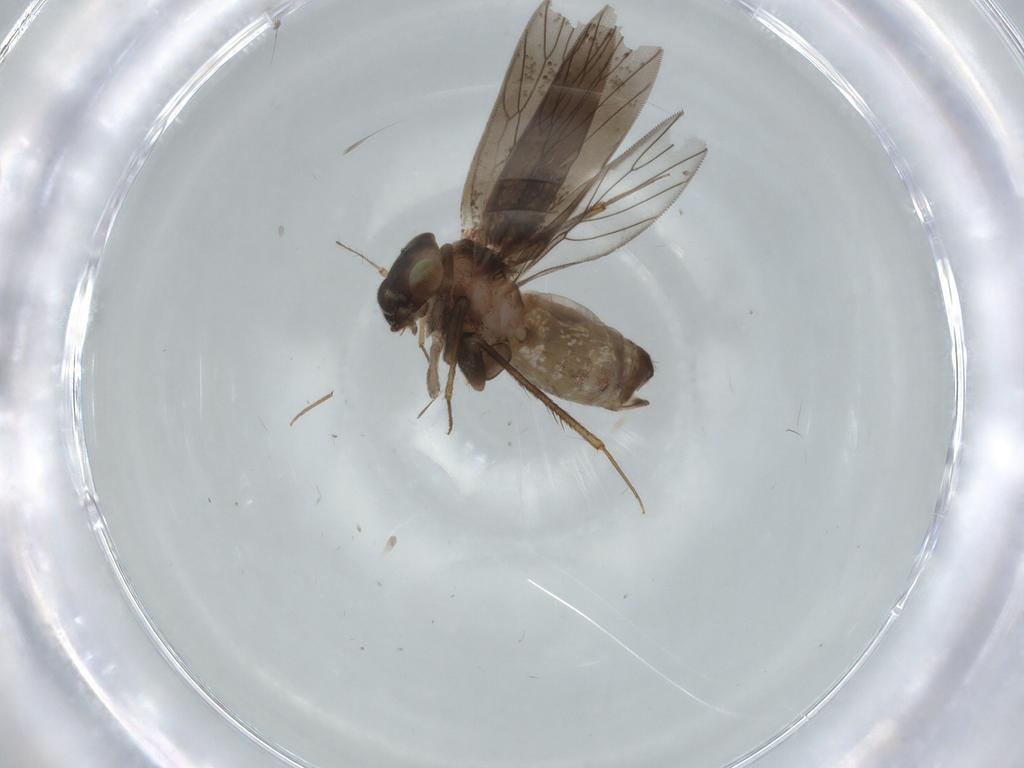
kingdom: Animalia
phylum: Arthropoda
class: Insecta
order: Psocodea
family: Lepidopsocidae
